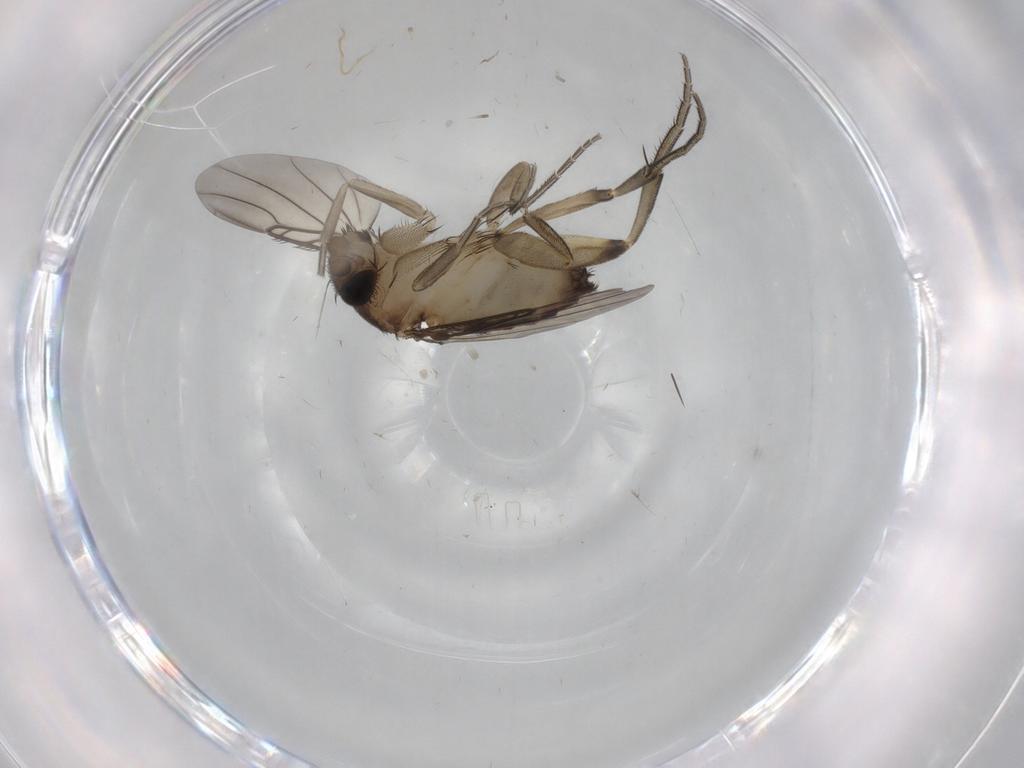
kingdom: Animalia
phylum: Arthropoda
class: Insecta
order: Diptera
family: Phoridae
